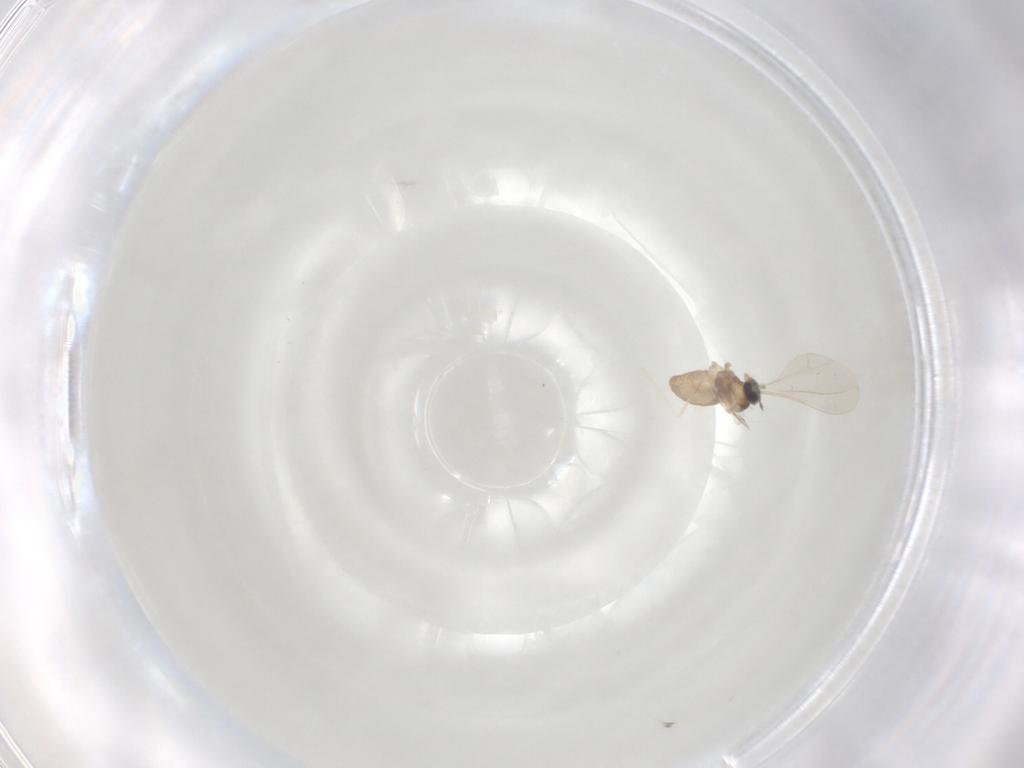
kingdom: Animalia
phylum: Arthropoda
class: Insecta
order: Diptera
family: Cecidomyiidae
